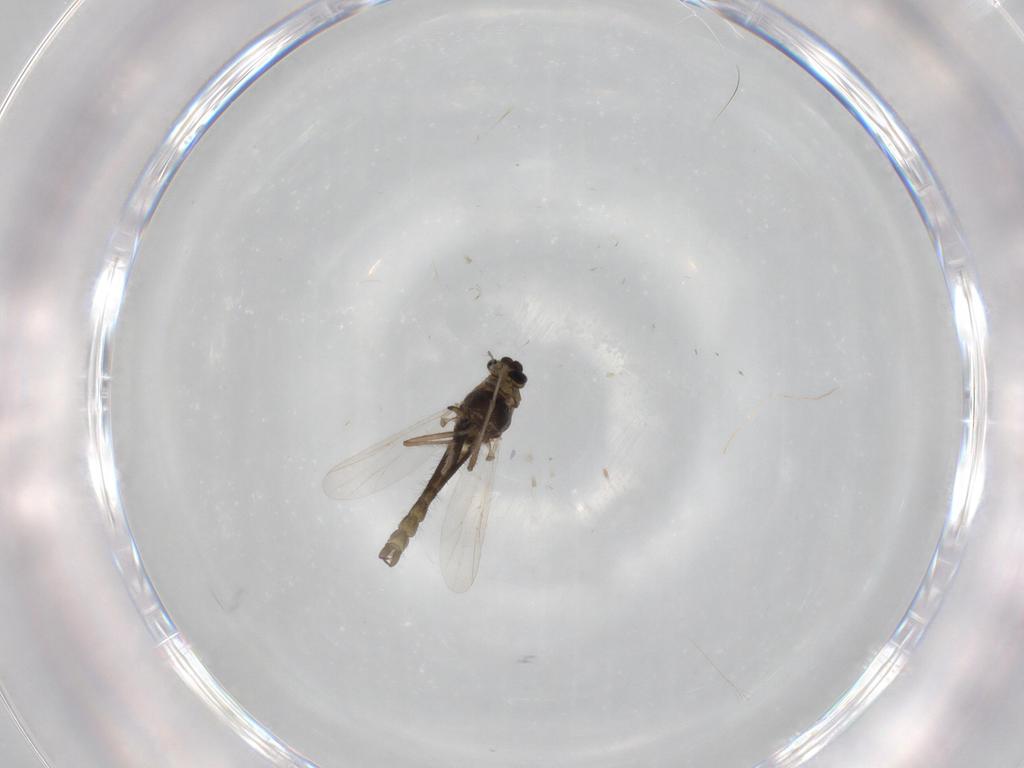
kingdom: Animalia
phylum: Arthropoda
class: Insecta
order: Diptera
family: Chironomidae
